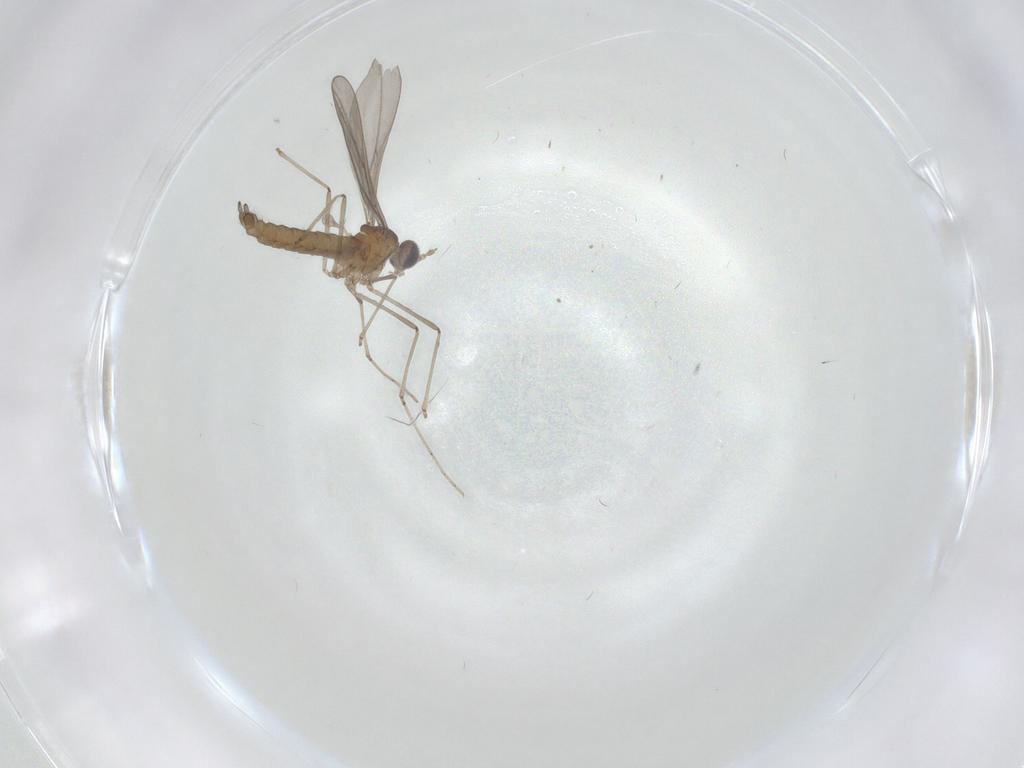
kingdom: Animalia
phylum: Arthropoda
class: Insecta
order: Diptera
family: Cecidomyiidae
